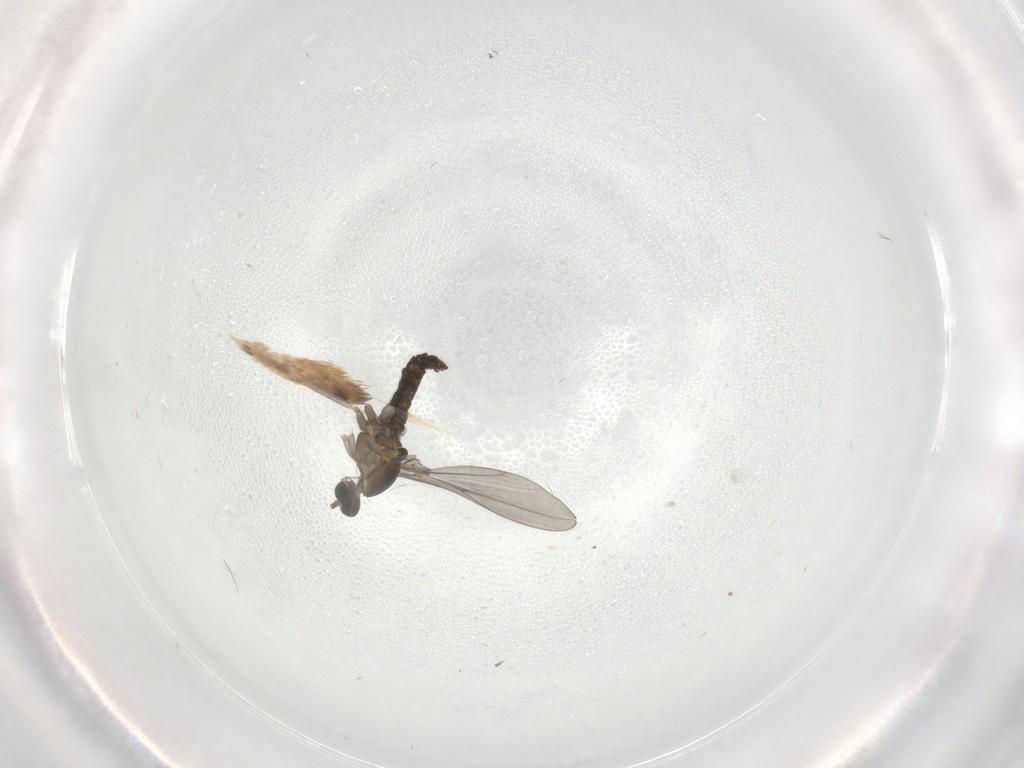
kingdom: Animalia
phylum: Arthropoda
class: Insecta
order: Diptera
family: Cecidomyiidae
